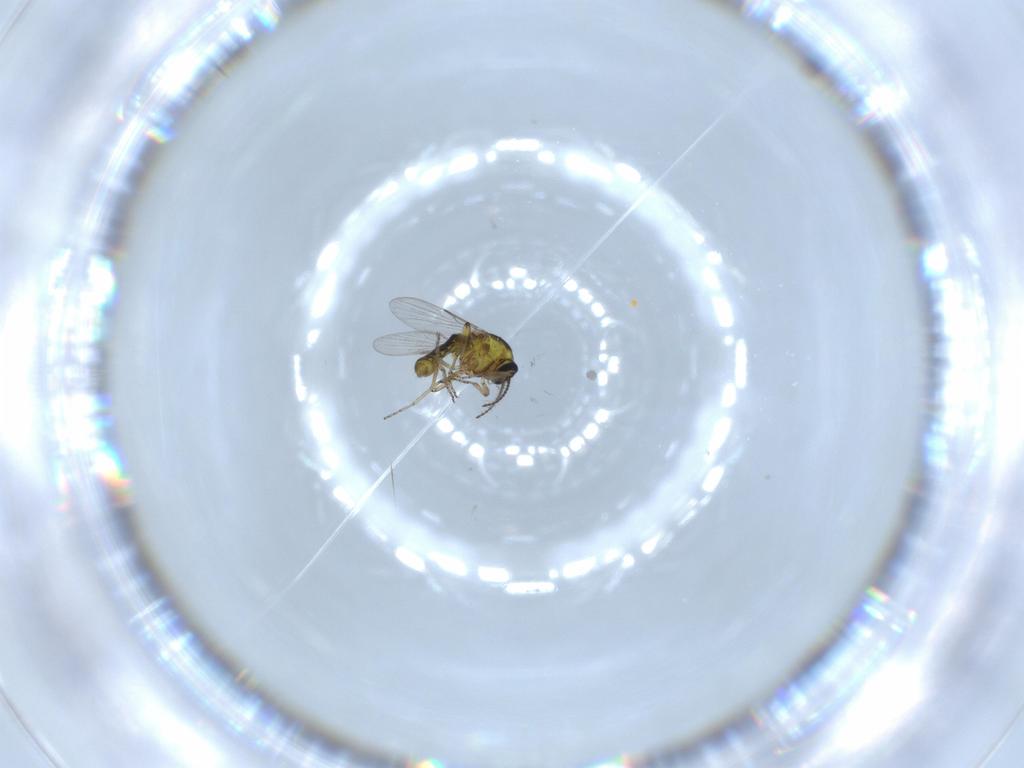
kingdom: Animalia
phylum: Arthropoda
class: Insecta
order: Diptera
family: Ceratopogonidae
